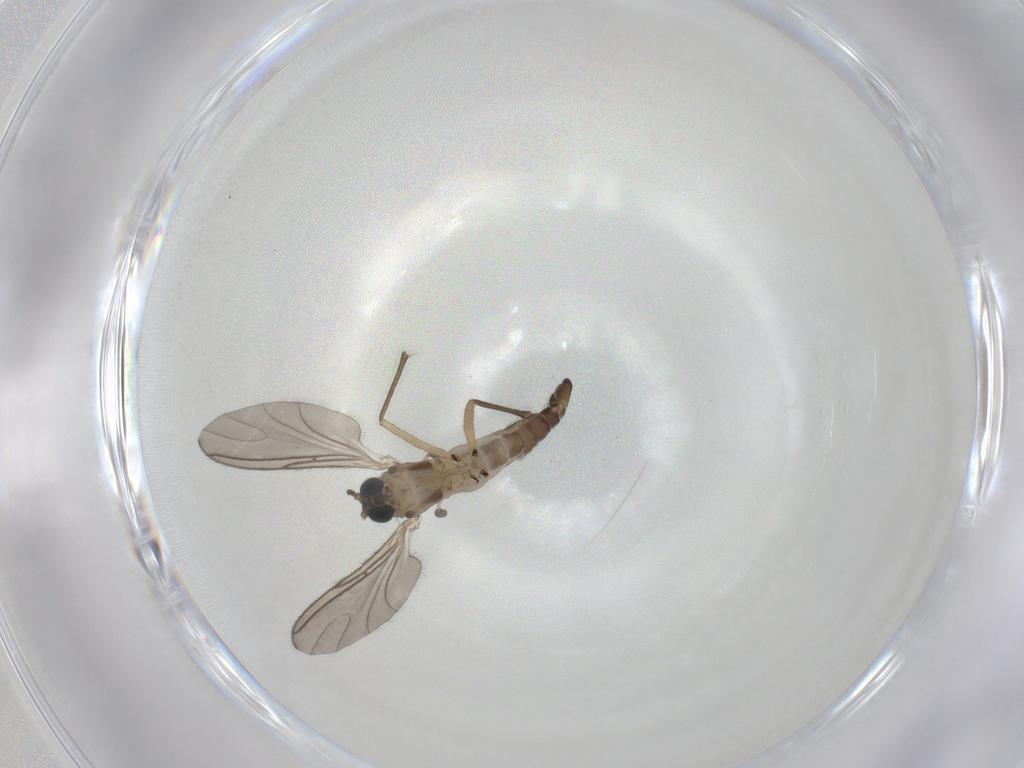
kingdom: Animalia
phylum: Arthropoda
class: Insecta
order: Diptera
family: Sciaridae
